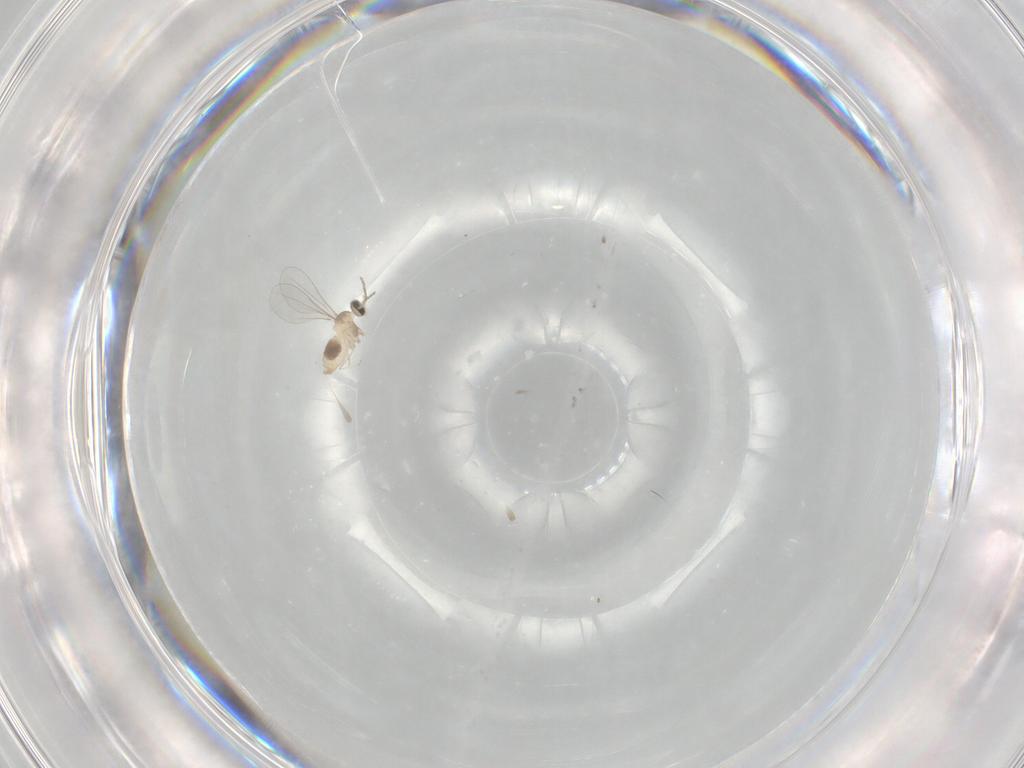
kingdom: Animalia
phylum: Arthropoda
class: Insecta
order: Diptera
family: Cecidomyiidae
